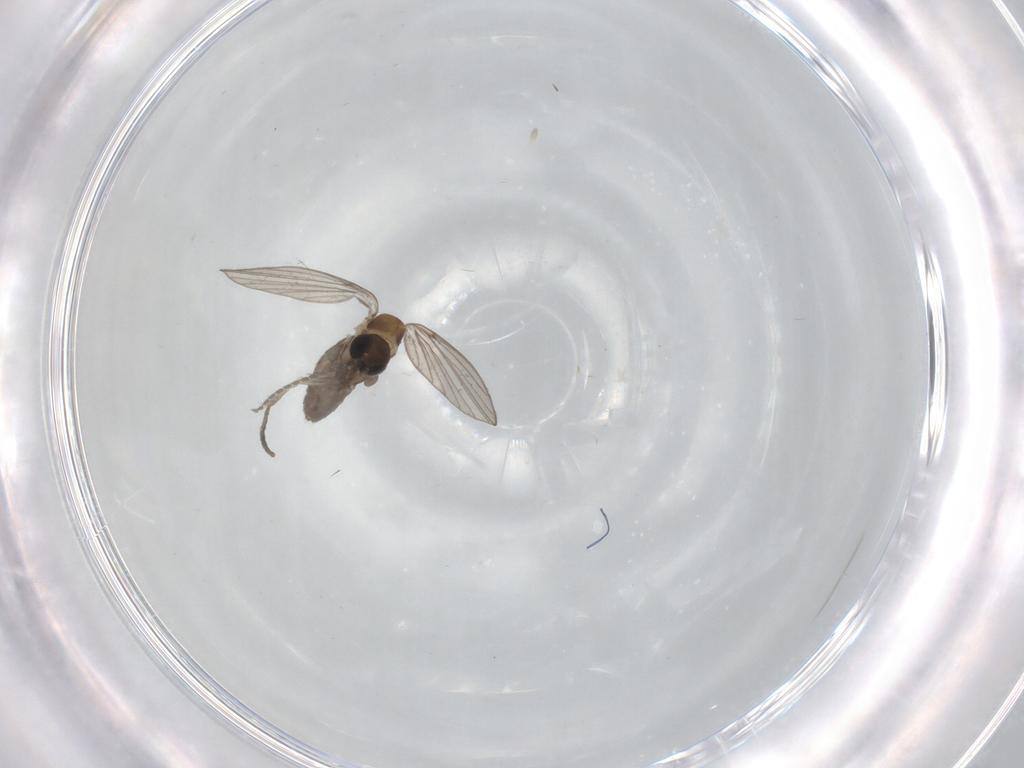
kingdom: Animalia
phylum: Arthropoda
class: Insecta
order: Diptera
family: Psychodidae
